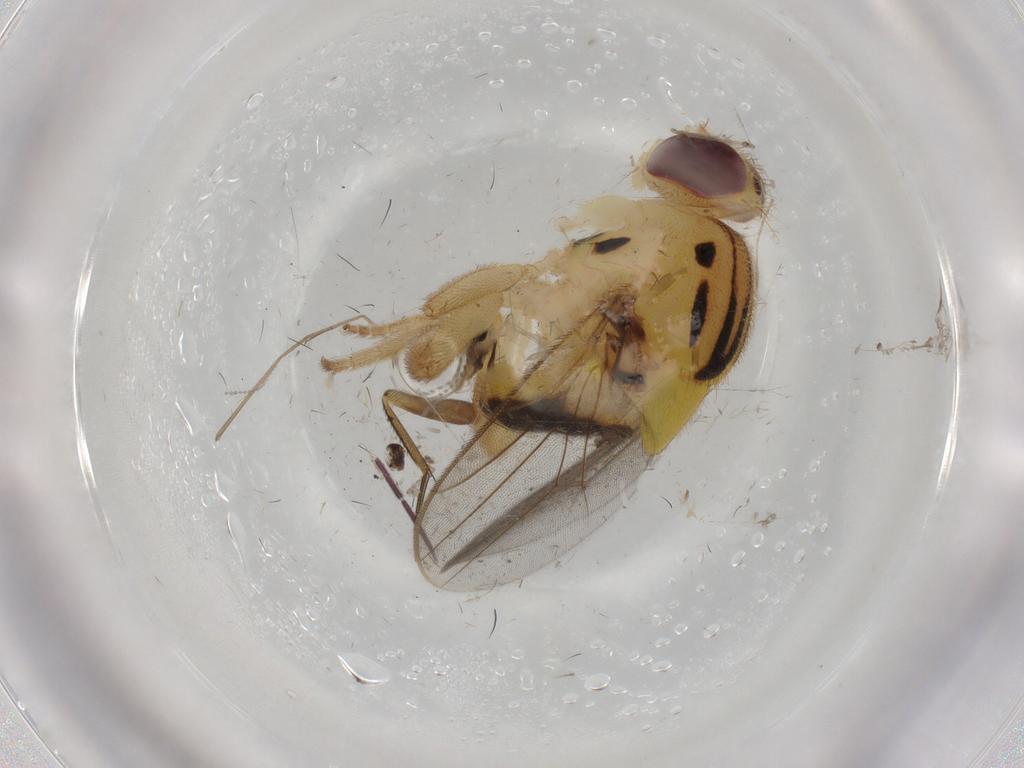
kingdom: Animalia
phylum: Arthropoda
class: Insecta
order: Diptera
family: Chloropidae
